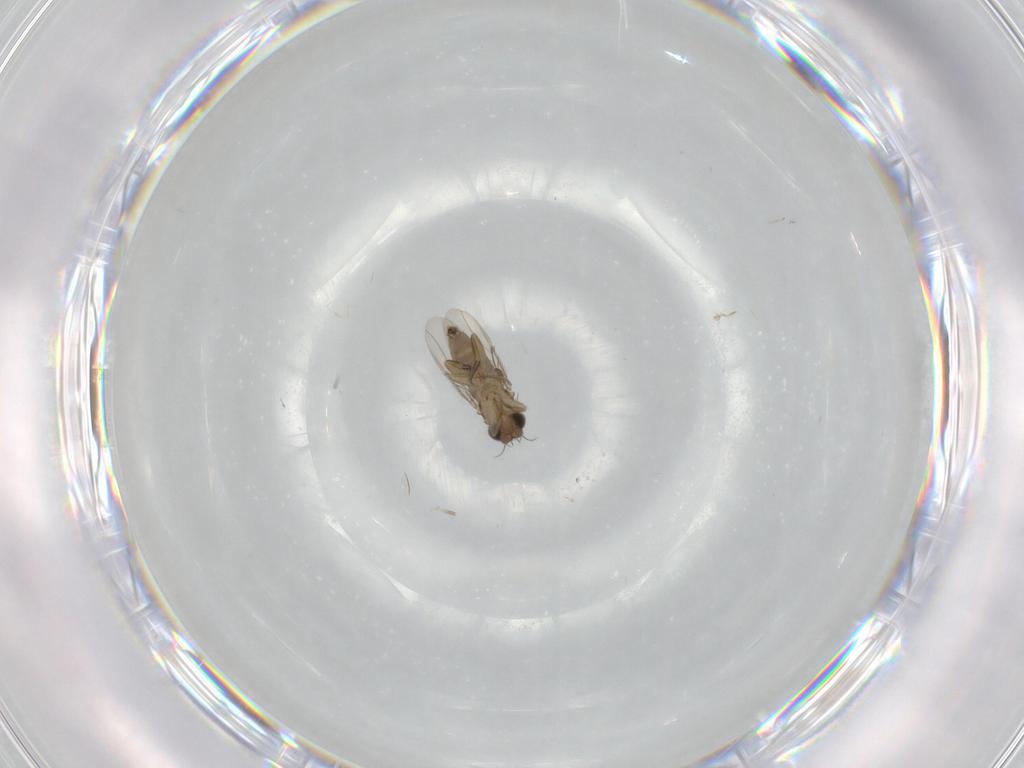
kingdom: Animalia
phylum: Arthropoda
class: Insecta
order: Diptera
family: Phoridae
